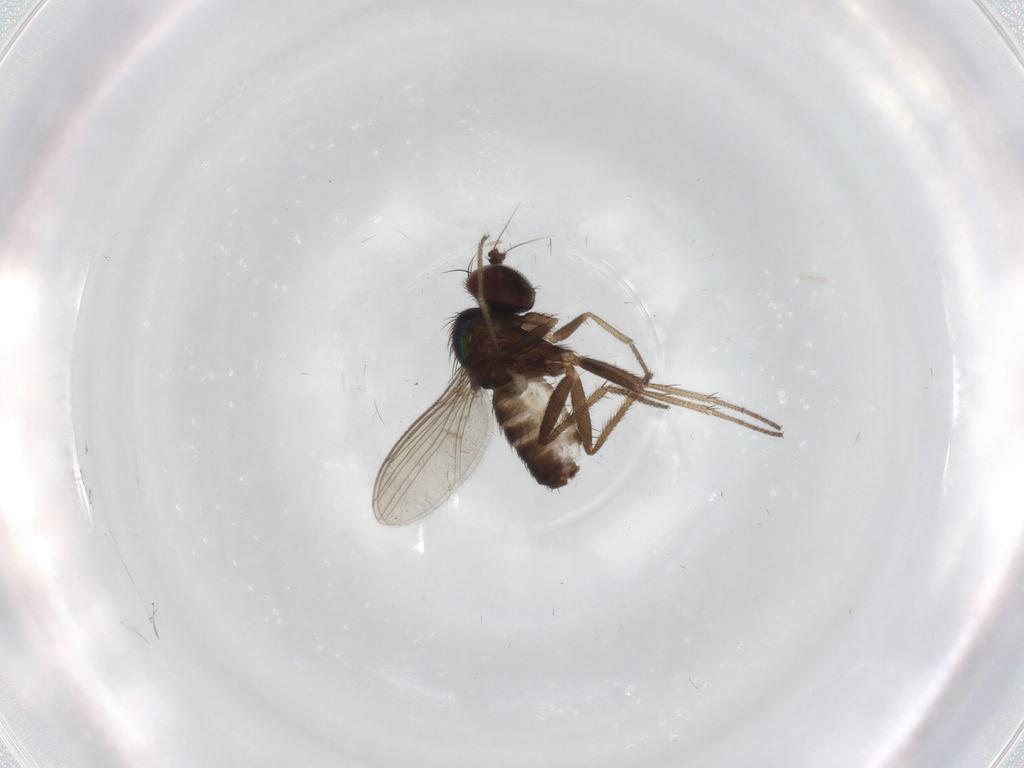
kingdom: Animalia
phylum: Arthropoda
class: Insecta
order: Diptera
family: Cecidomyiidae
